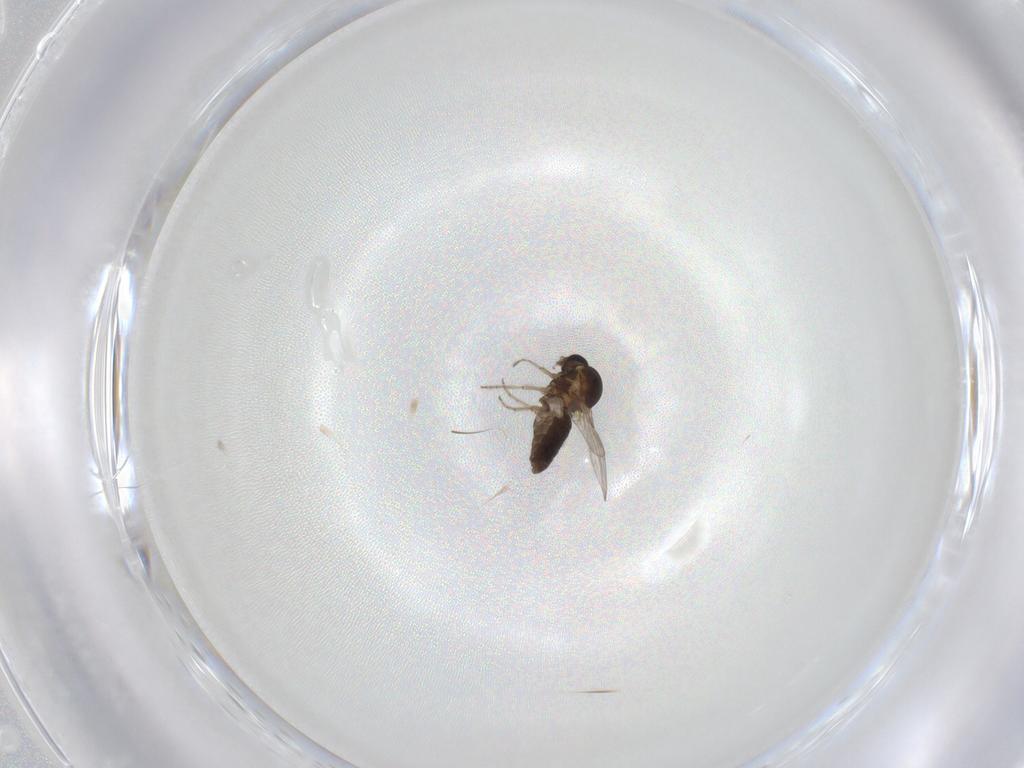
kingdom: Animalia
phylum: Arthropoda
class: Insecta
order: Diptera
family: Ceratopogonidae
